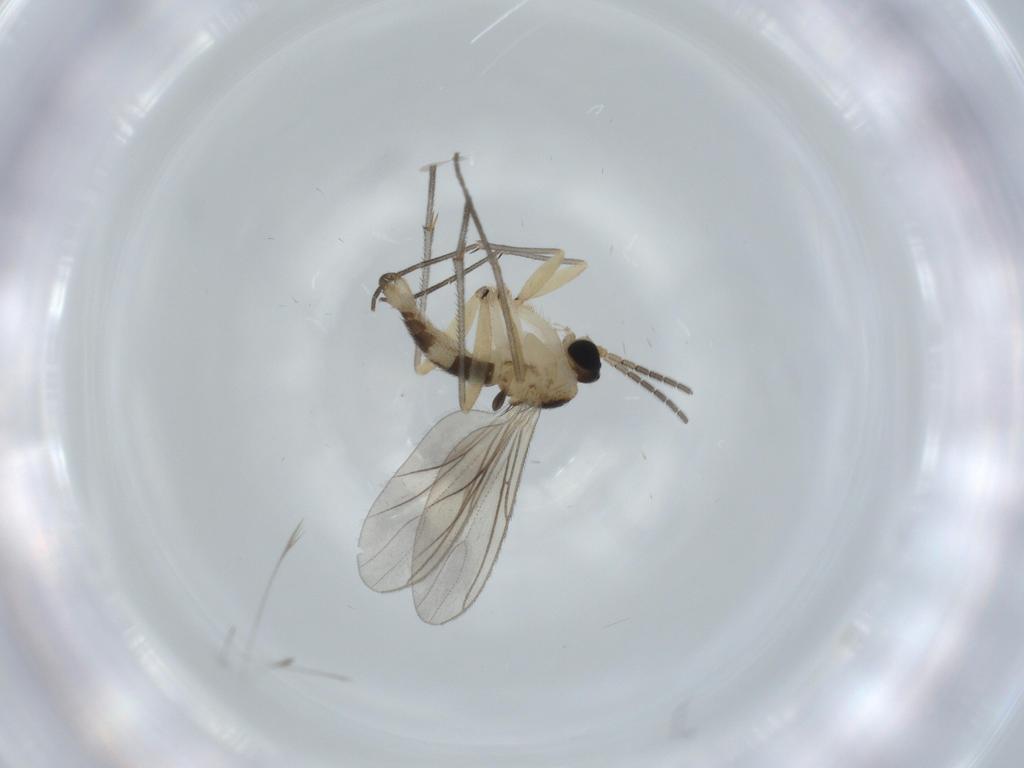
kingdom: Animalia
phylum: Arthropoda
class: Insecta
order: Diptera
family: Sciaridae
